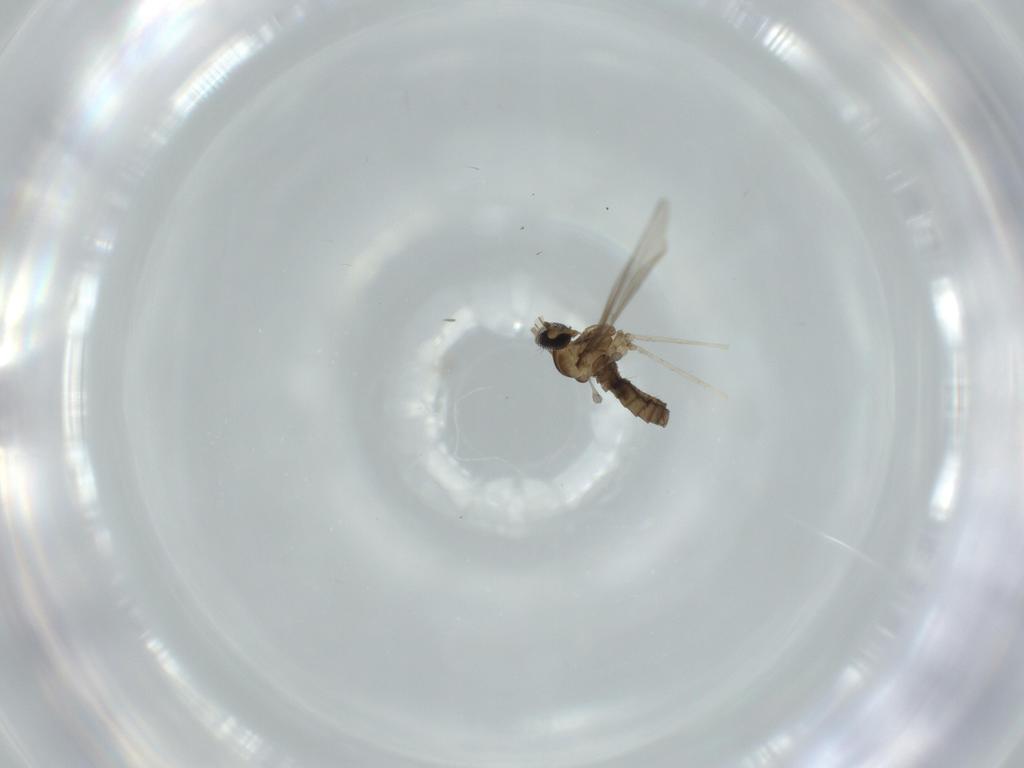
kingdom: Animalia
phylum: Arthropoda
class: Insecta
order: Diptera
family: Cecidomyiidae
